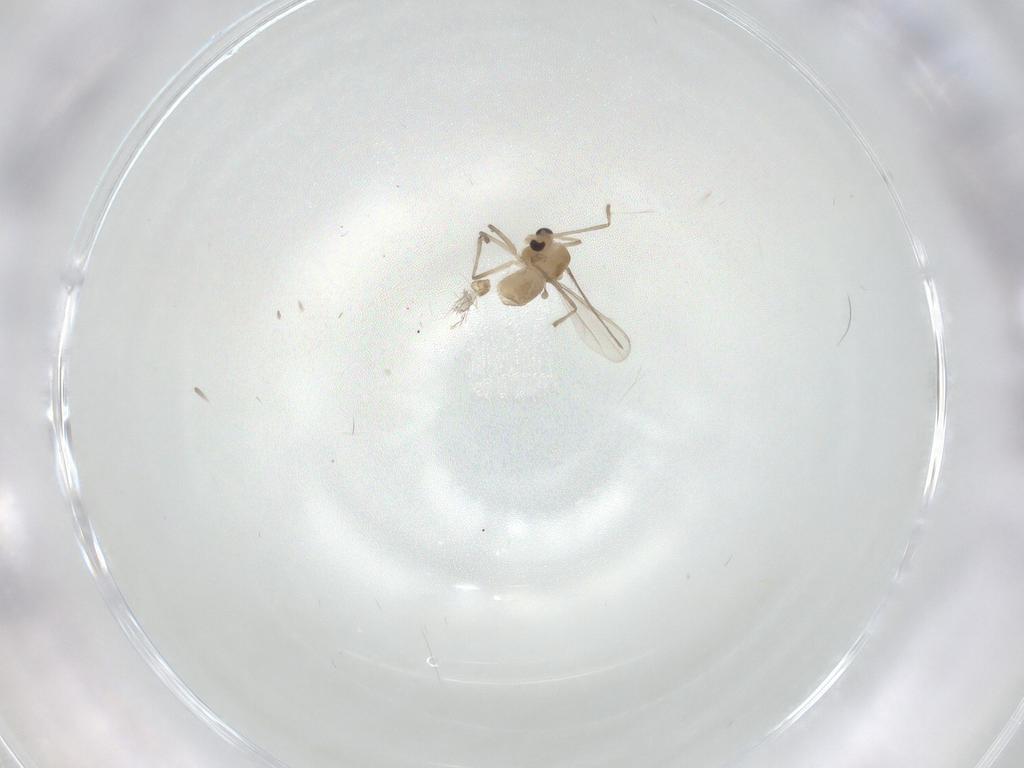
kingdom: Animalia
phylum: Arthropoda
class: Insecta
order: Diptera
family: Chironomidae
